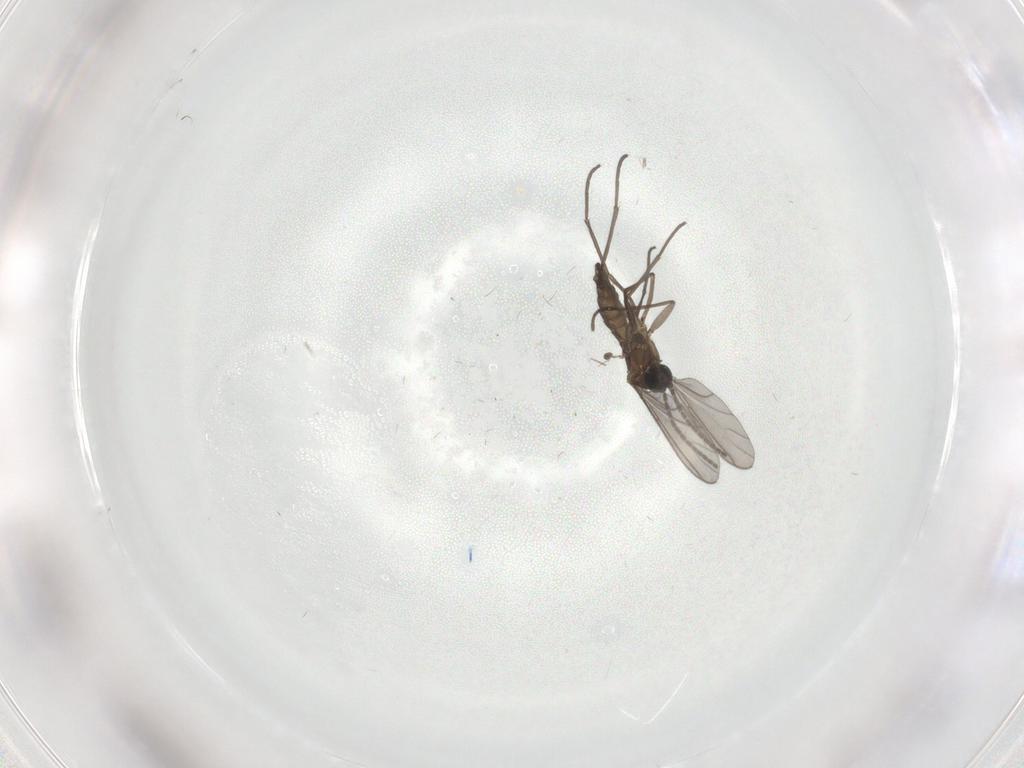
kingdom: Animalia
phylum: Arthropoda
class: Insecta
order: Diptera
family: Sciaridae
